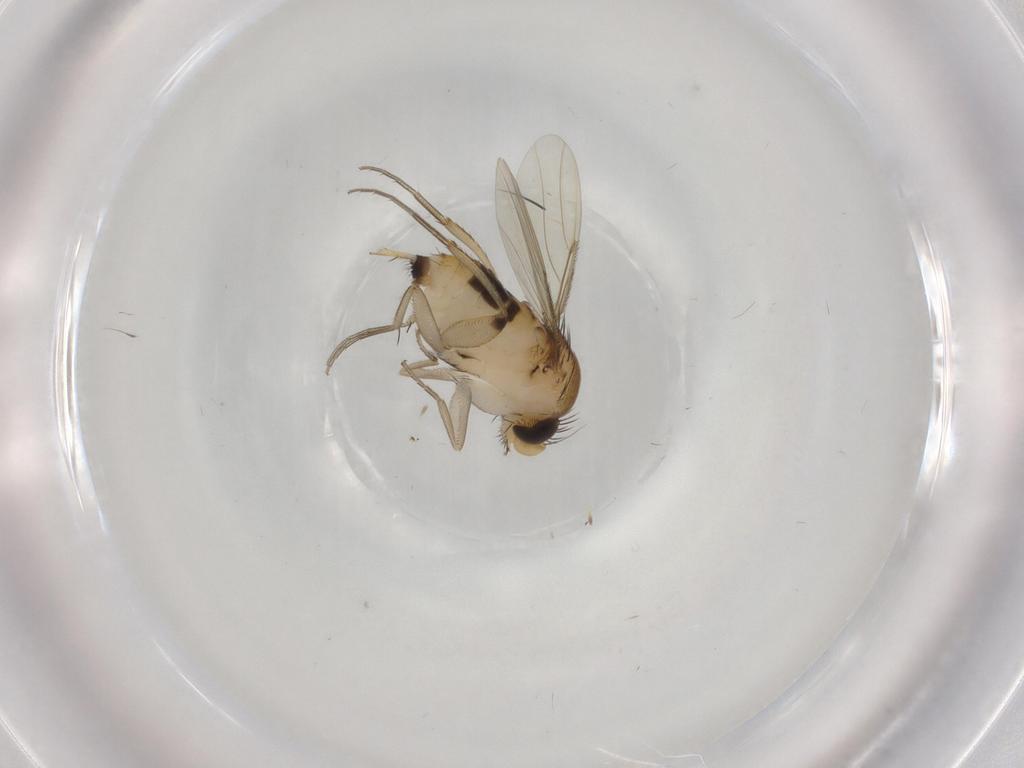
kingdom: Animalia
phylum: Arthropoda
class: Insecta
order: Diptera
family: Phoridae
